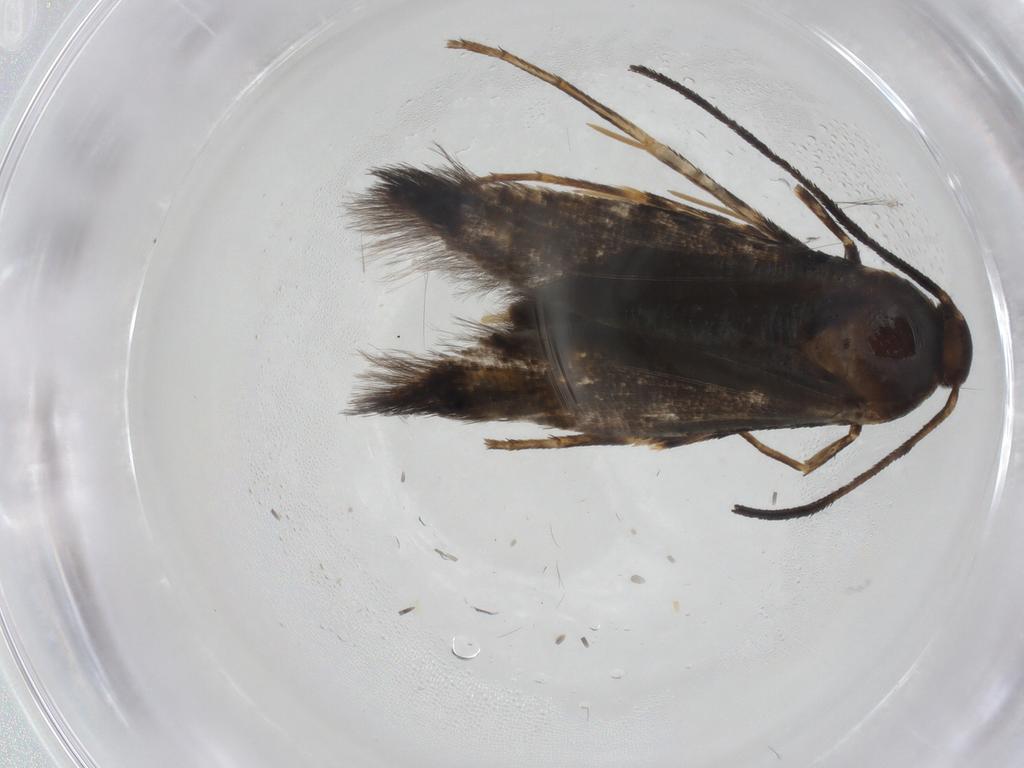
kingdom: Animalia
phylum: Arthropoda
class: Insecta
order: Lepidoptera
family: Heliodinidae
